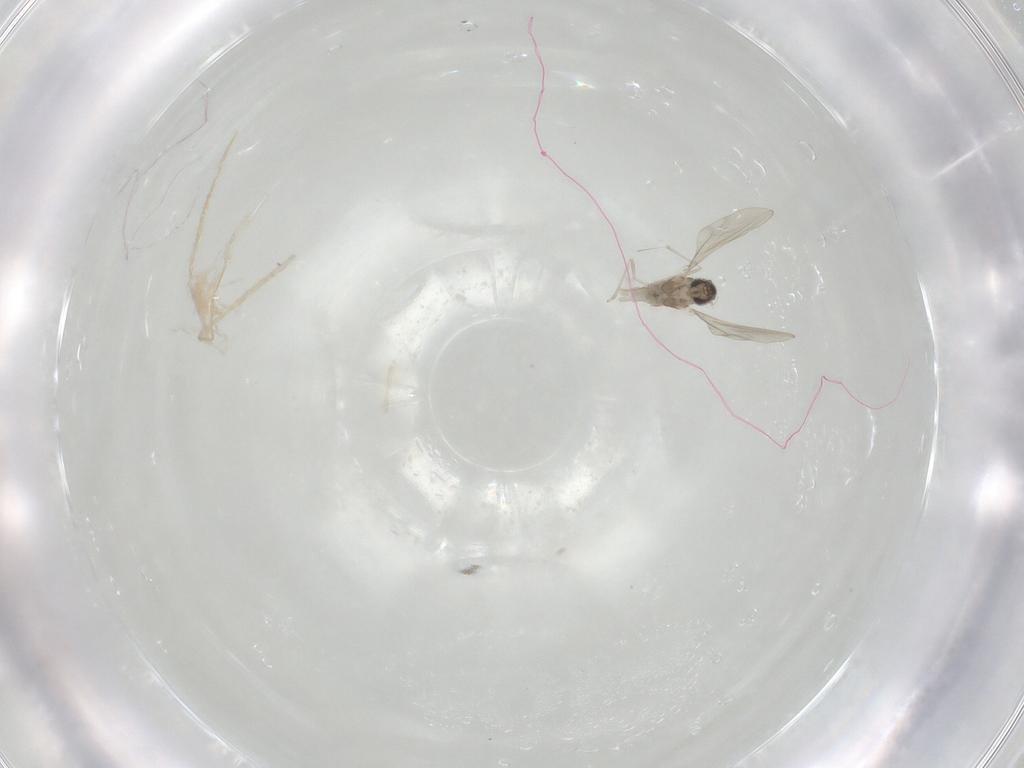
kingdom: Animalia
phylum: Arthropoda
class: Insecta
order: Diptera
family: Cecidomyiidae
